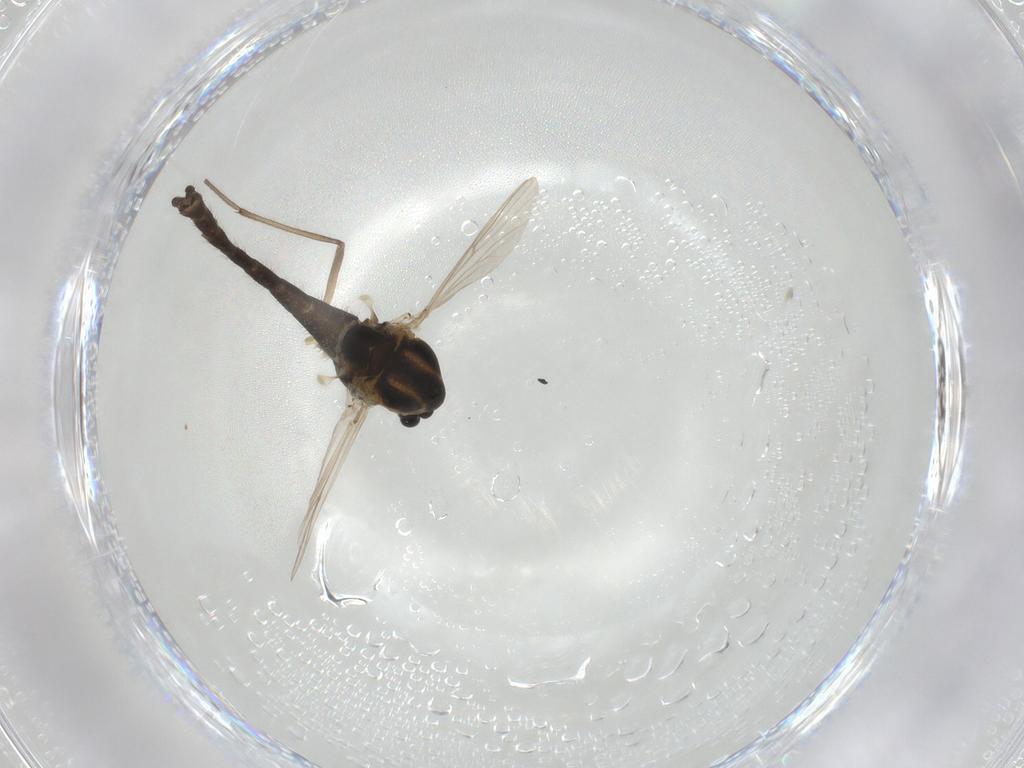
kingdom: Animalia
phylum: Arthropoda
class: Insecta
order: Diptera
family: Chironomidae
